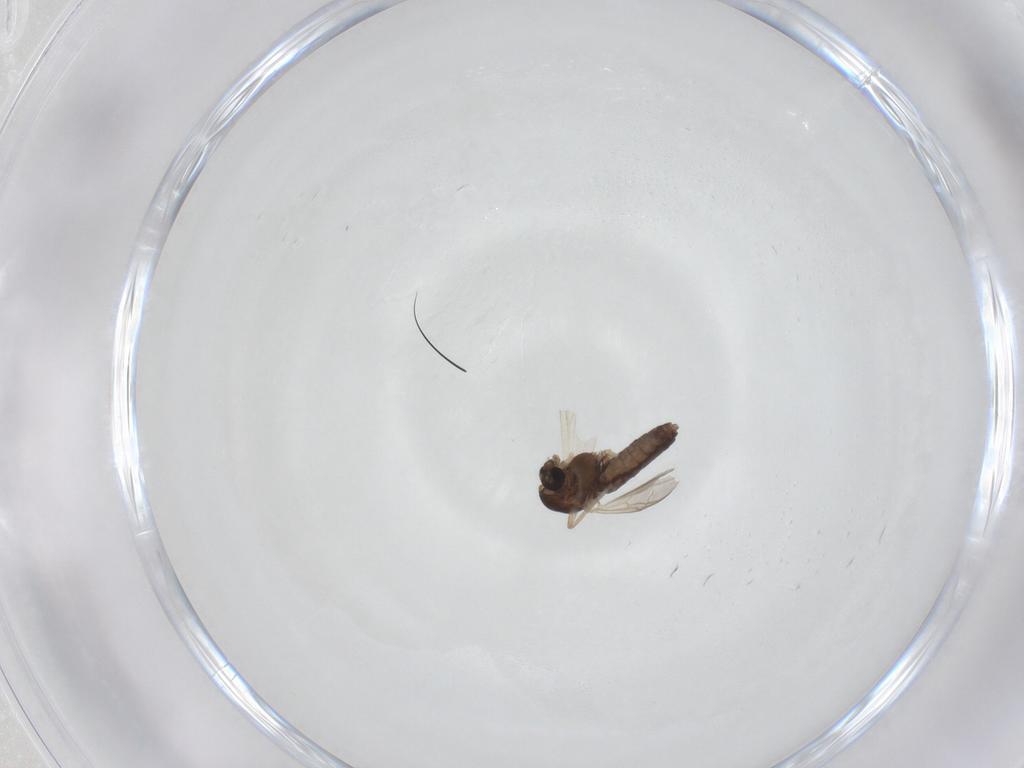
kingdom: Animalia
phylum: Arthropoda
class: Insecta
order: Diptera
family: Chironomidae
